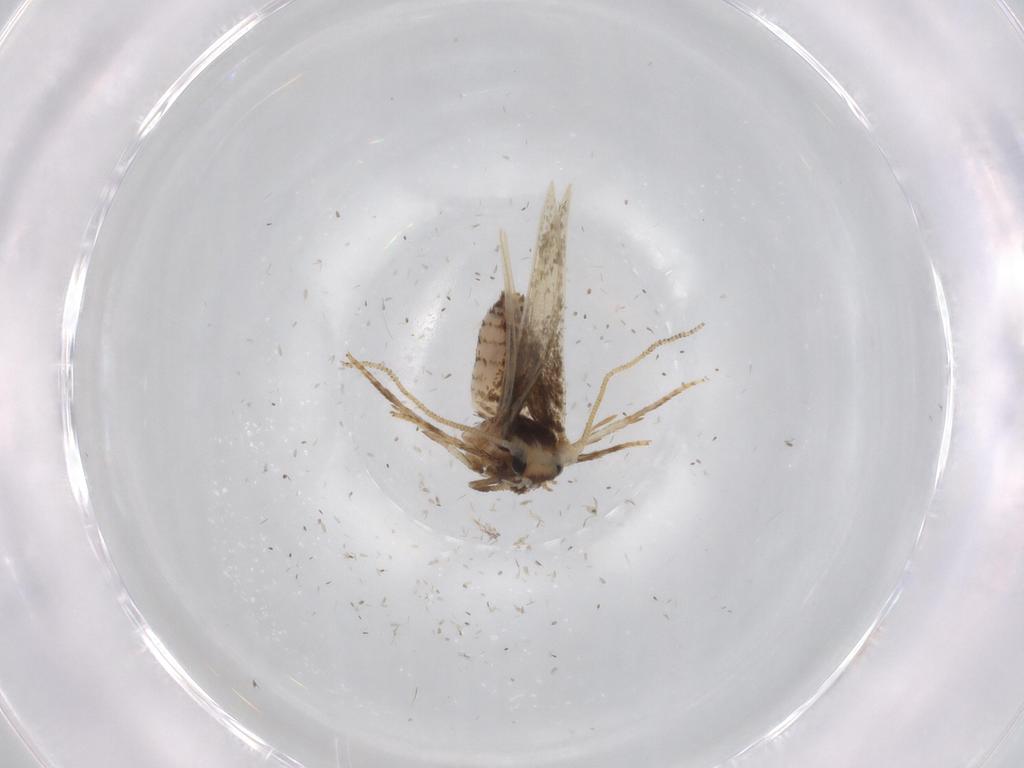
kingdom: Animalia
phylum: Arthropoda
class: Insecta
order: Lepidoptera
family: Nepticulidae
